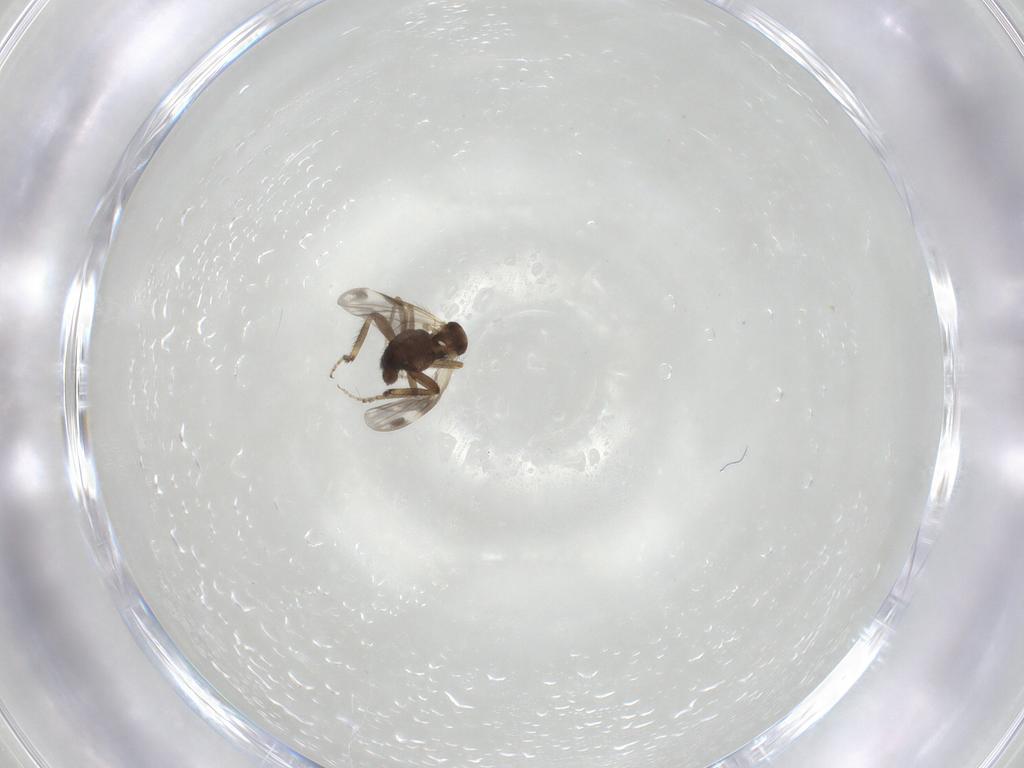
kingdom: Animalia
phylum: Arthropoda
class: Insecta
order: Diptera
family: Ceratopogonidae
